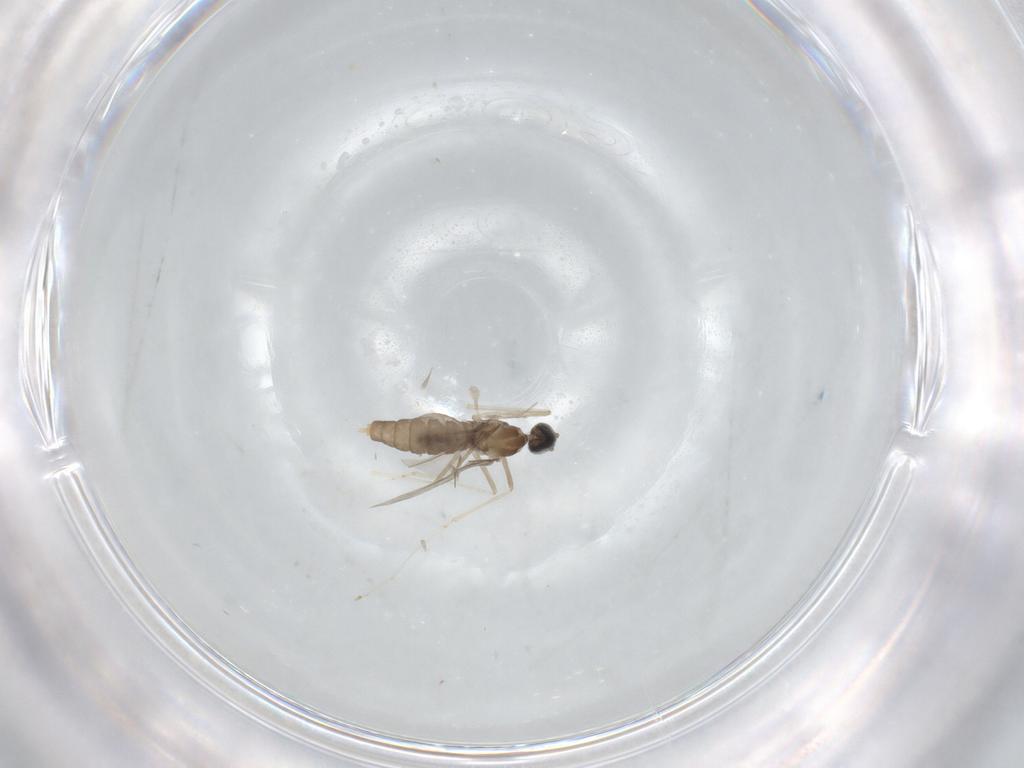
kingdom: Animalia
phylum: Arthropoda
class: Insecta
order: Diptera
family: Cecidomyiidae
